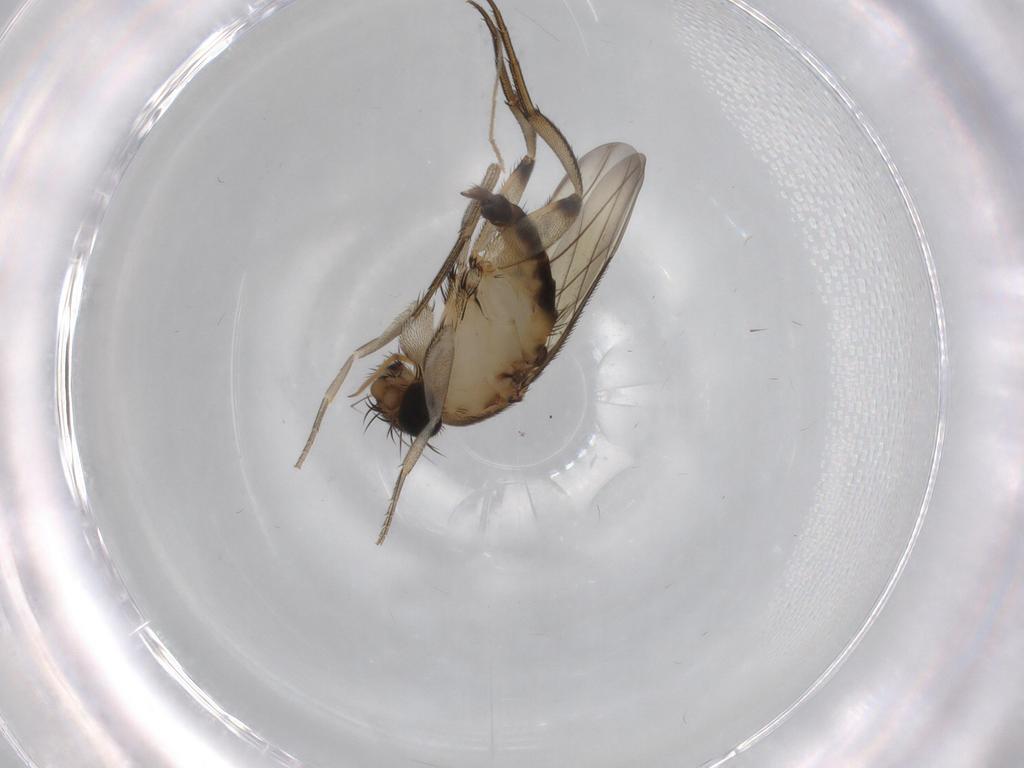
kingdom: Animalia
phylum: Arthropoda
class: Insecta
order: Diptera
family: Phoridae
